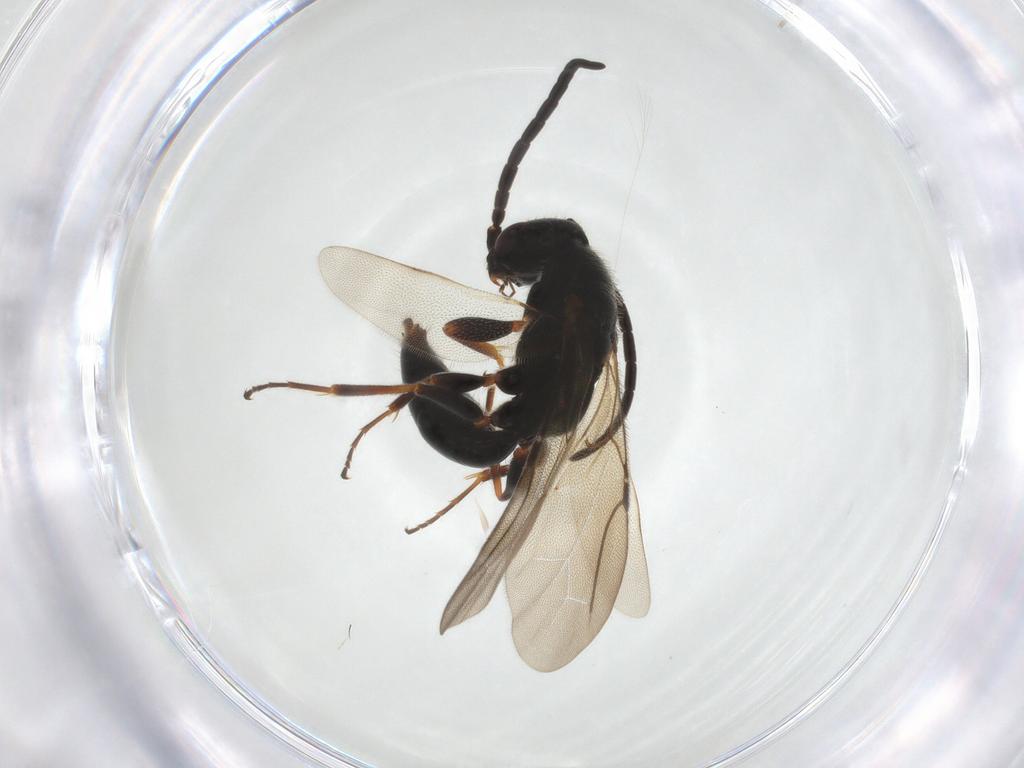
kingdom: Animalia
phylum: Arthropoda
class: Insecta
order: Hymenoptera
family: Bethylidae
